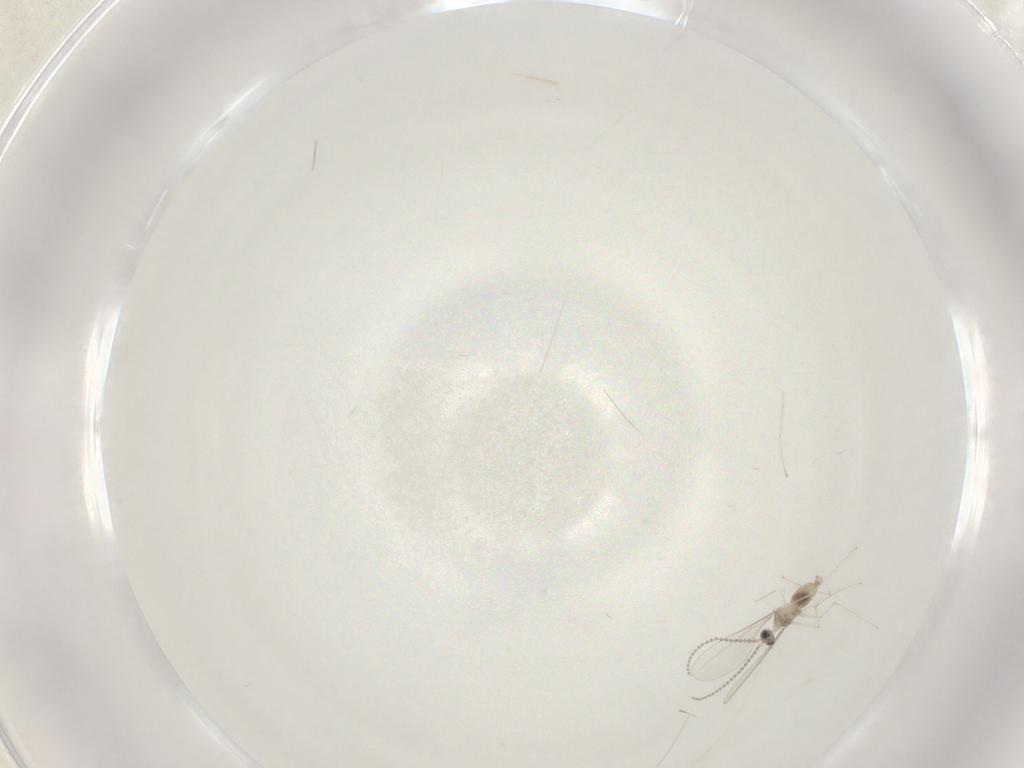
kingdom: Animalia
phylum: Arthropoda
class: Insecta
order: Diptera
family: Cecidomyiidae
